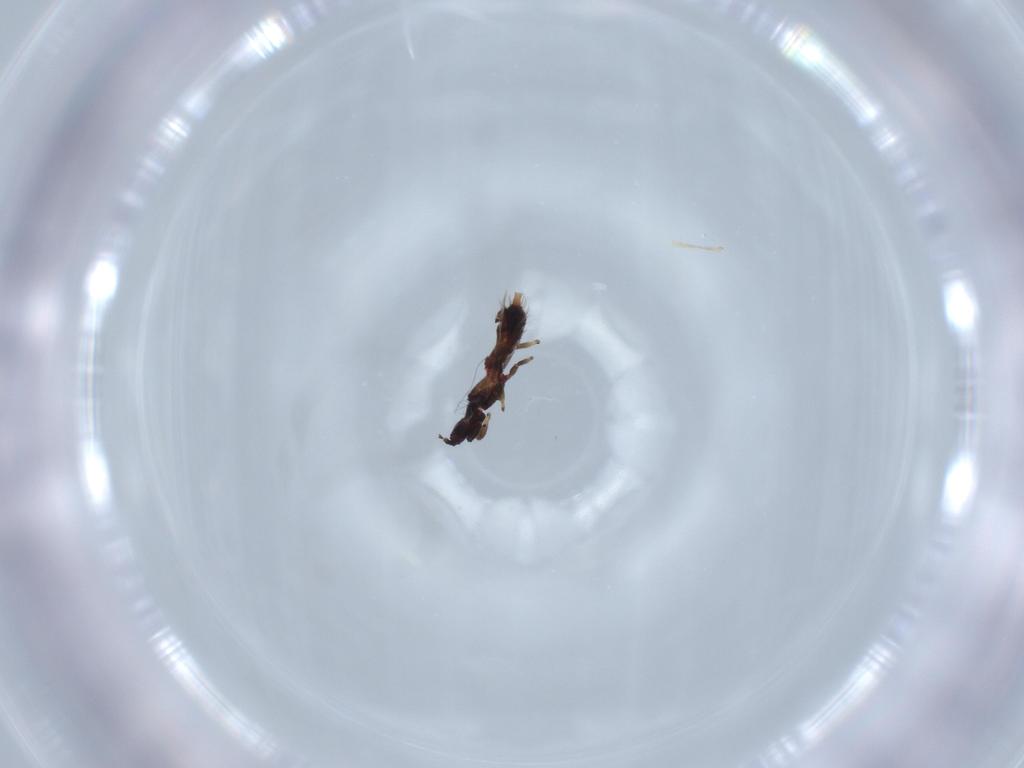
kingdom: Animalia
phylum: Arthropoda
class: Insecta
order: Thysanoptera
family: Phlaeothripidae
